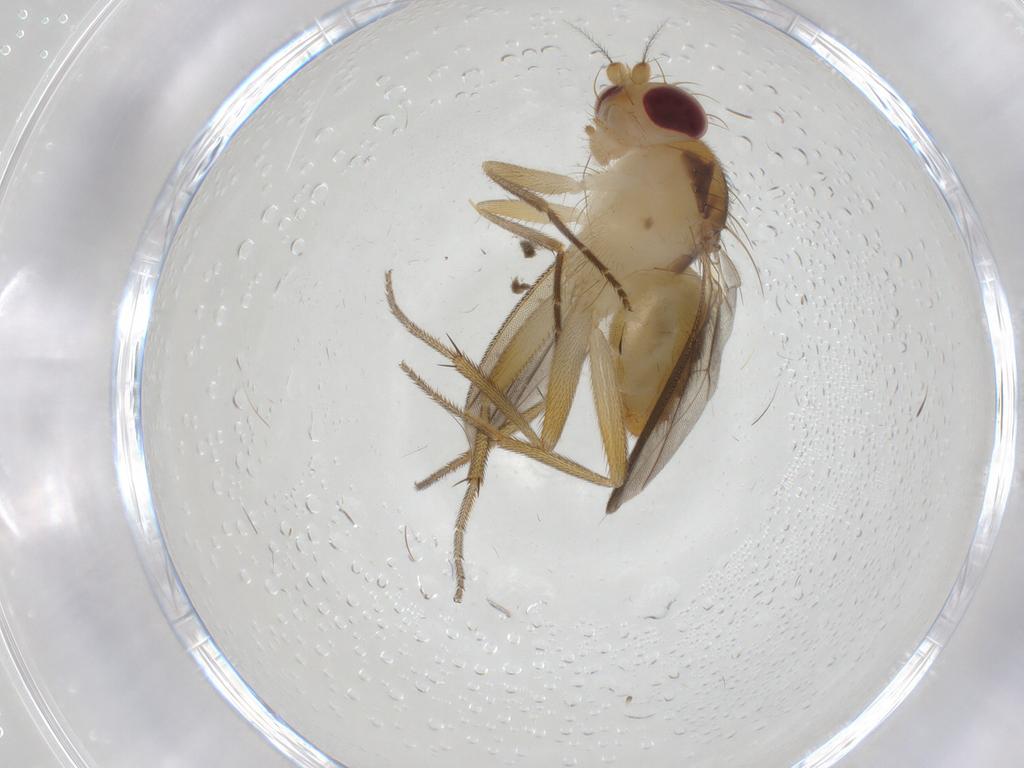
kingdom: Animalia
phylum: Arthropoda
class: Insecta
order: Diptera
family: Clusiidae
